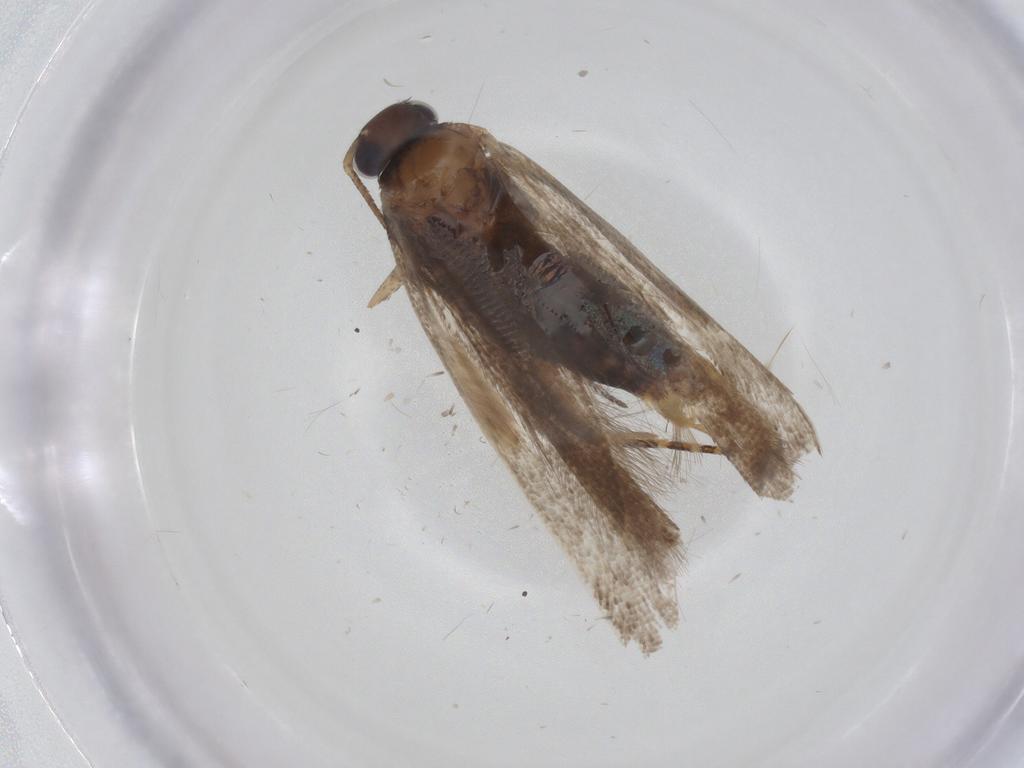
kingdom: Animalia
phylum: Arthropoda
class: Insecta
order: Lepidoptera
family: Gelechiidae
